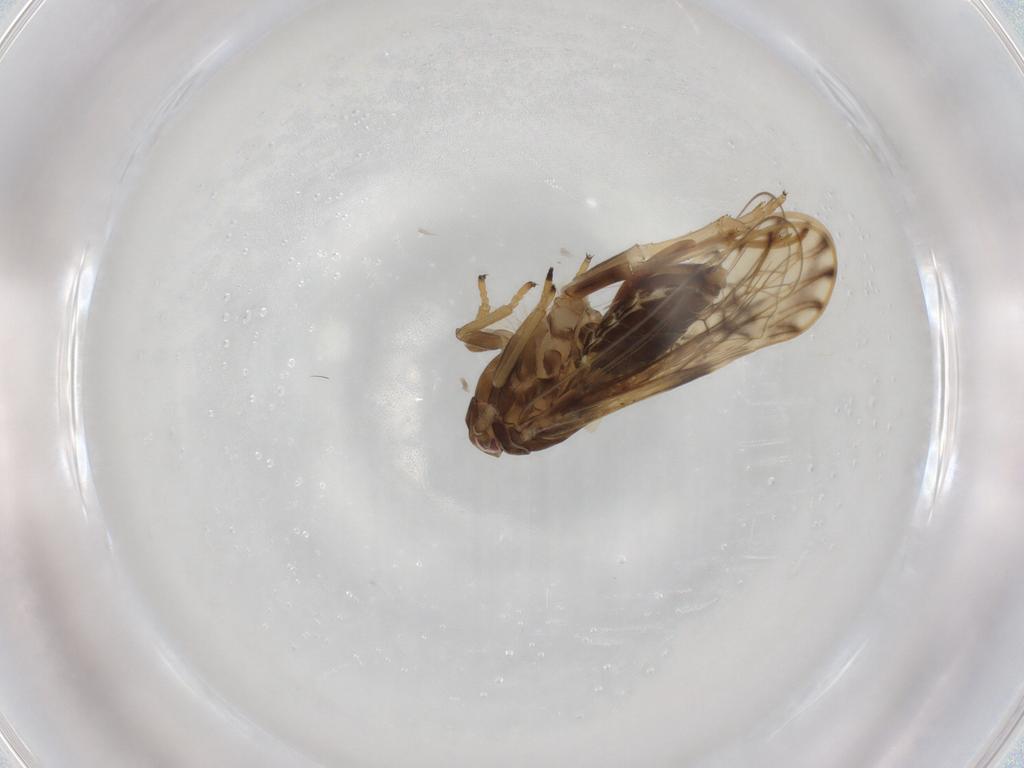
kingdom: Animalia
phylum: Arthropoda
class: Insecta
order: Hemiptera
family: Delphacidae
